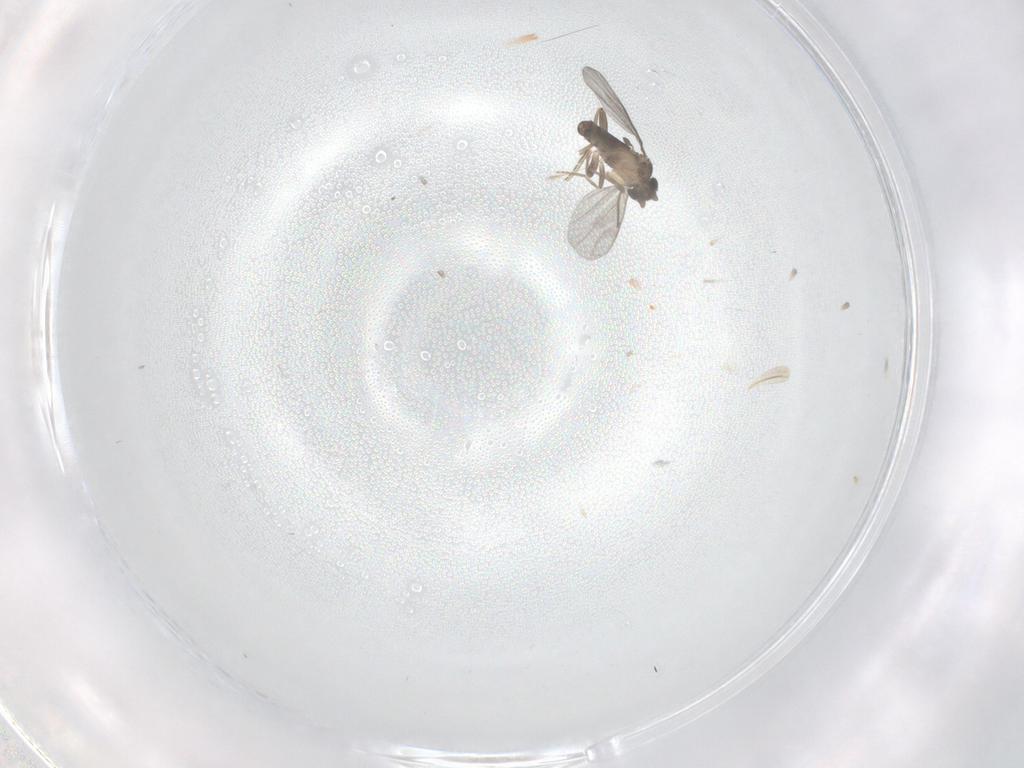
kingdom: Animalia
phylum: Arthropoda
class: Insecta
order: Diptera
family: Phoridae
